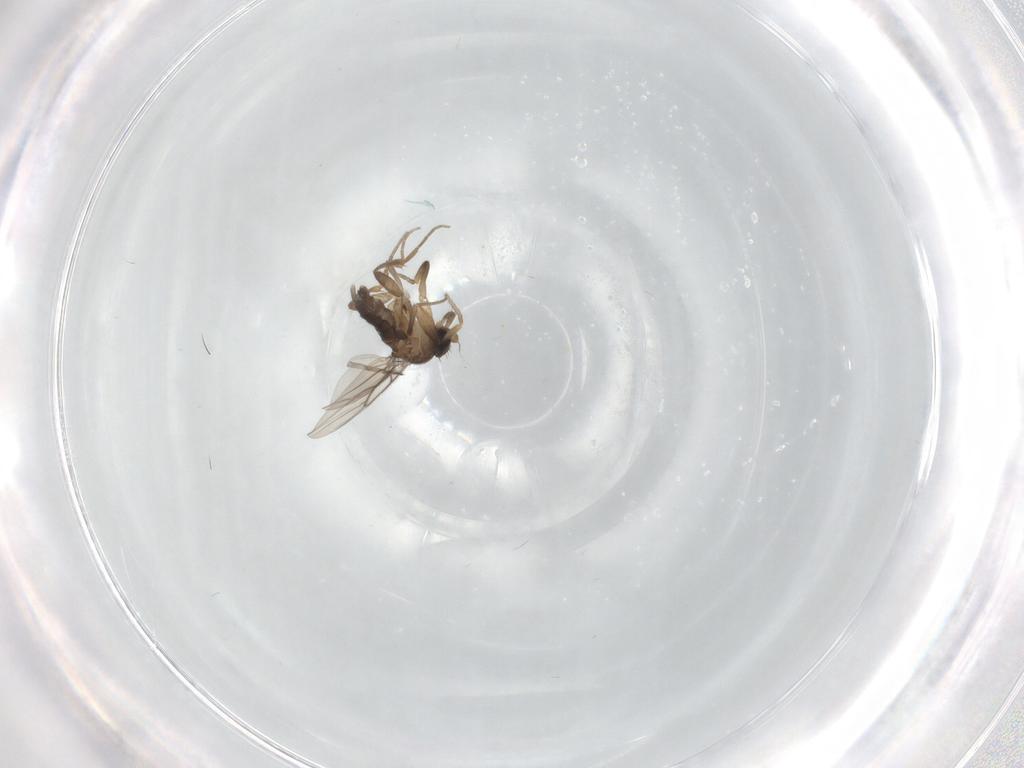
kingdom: Animalia
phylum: Arthropoda
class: Insecta
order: Diptera
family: Phoridae
